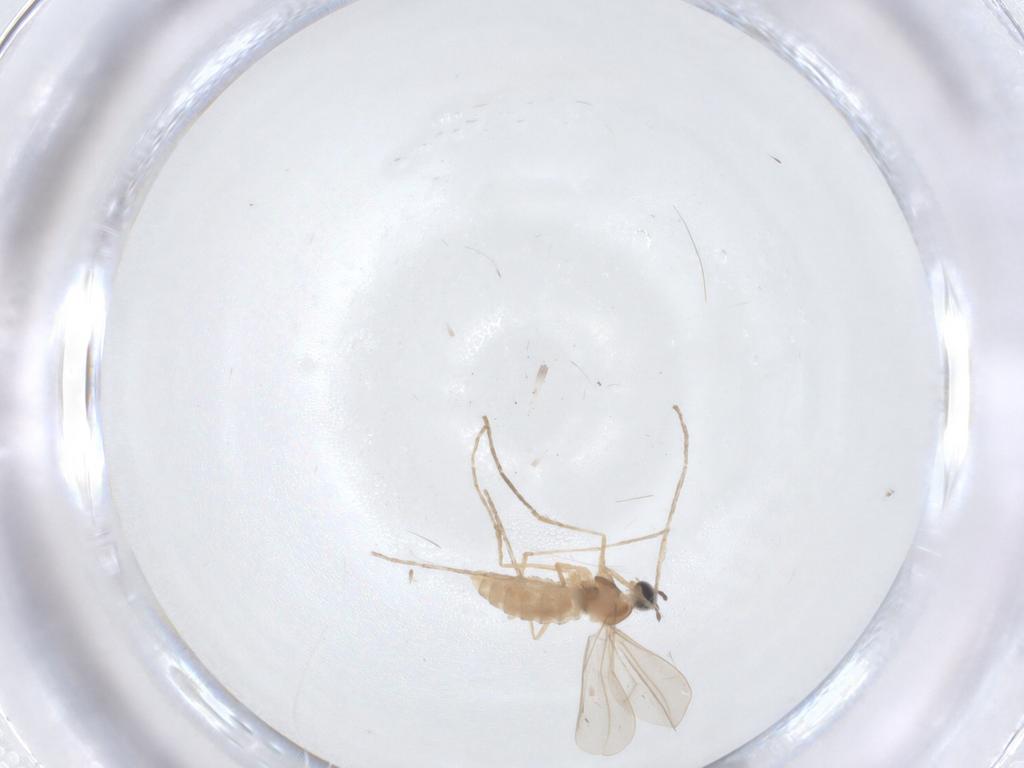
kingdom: Animalia
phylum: Arthropoda
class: Insecta
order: Diptera
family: Cecidomyiidae
